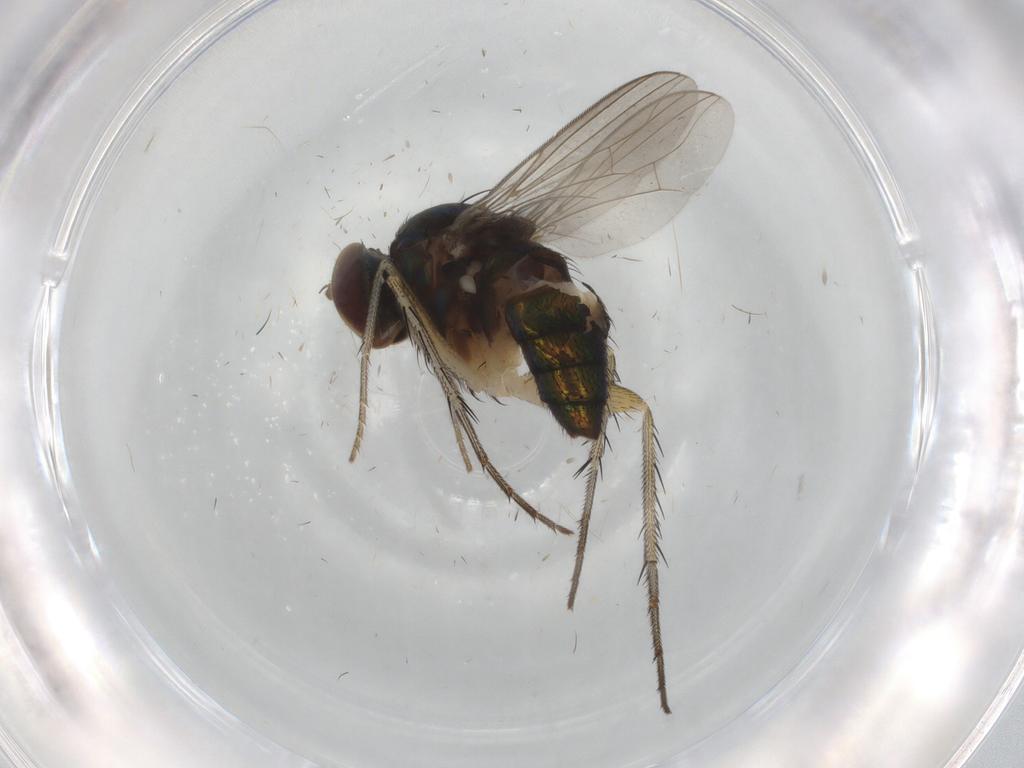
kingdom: Animalia
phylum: Arthropoda
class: Insecta
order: Diptera
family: Dolichopodidae
